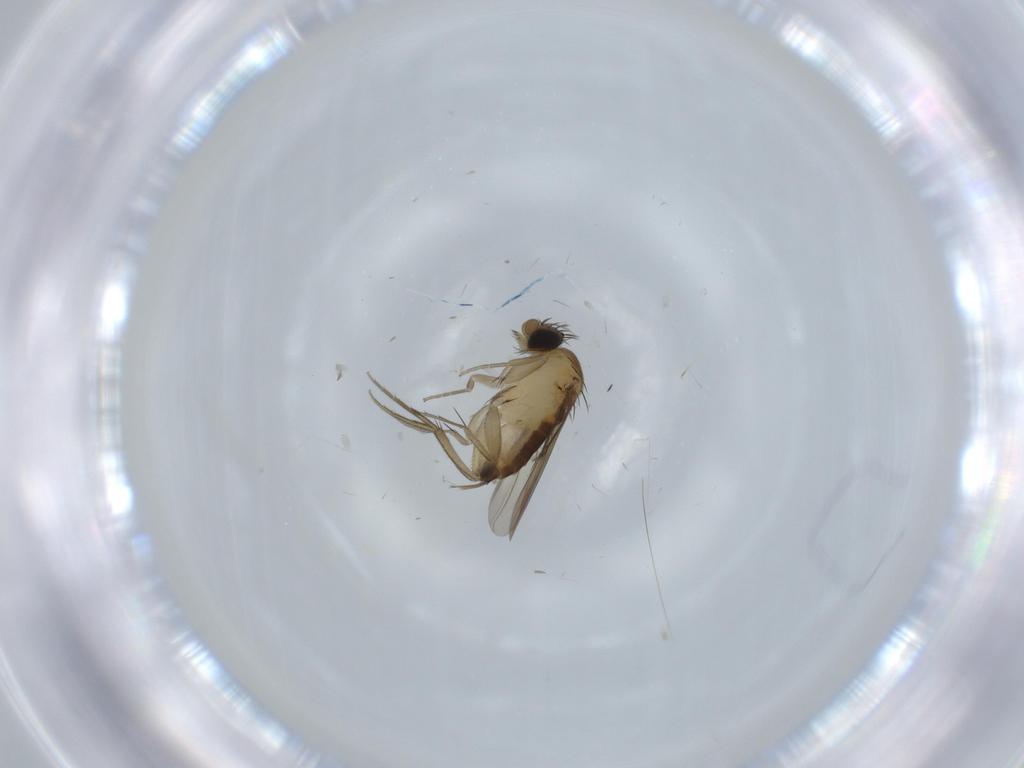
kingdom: Animalia
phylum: Arthropoda
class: Insecta
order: Diptera
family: Phoridae
